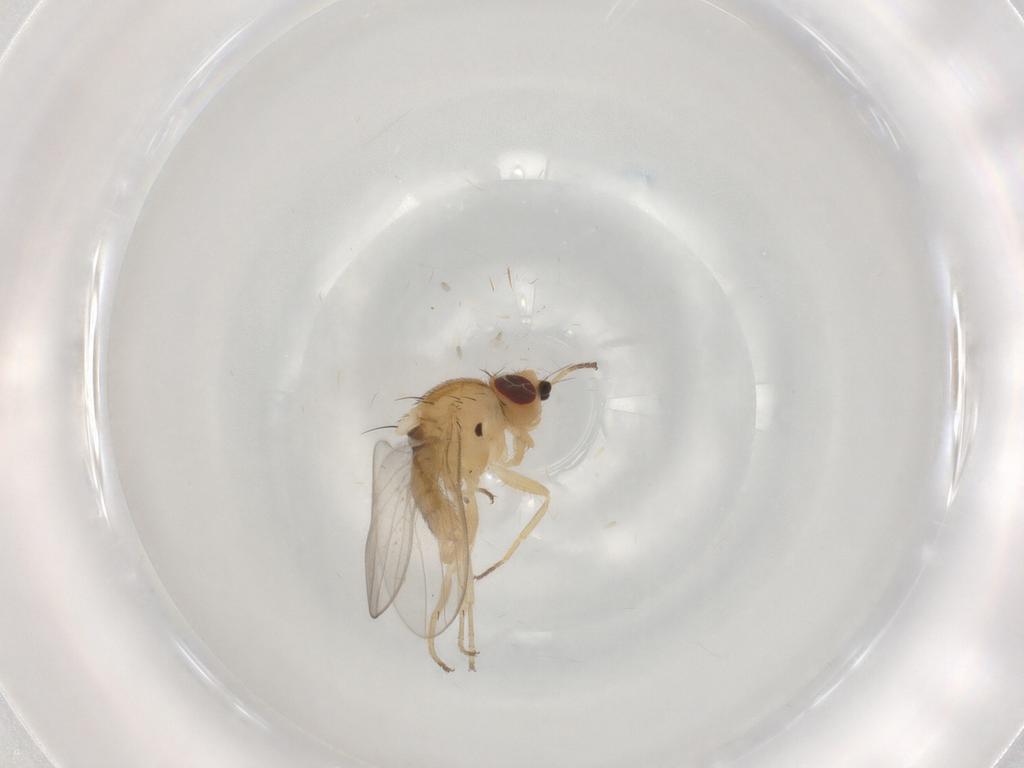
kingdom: Animalia
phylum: Arthropoda
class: Insecta
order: Diptera
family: Chloropidae
